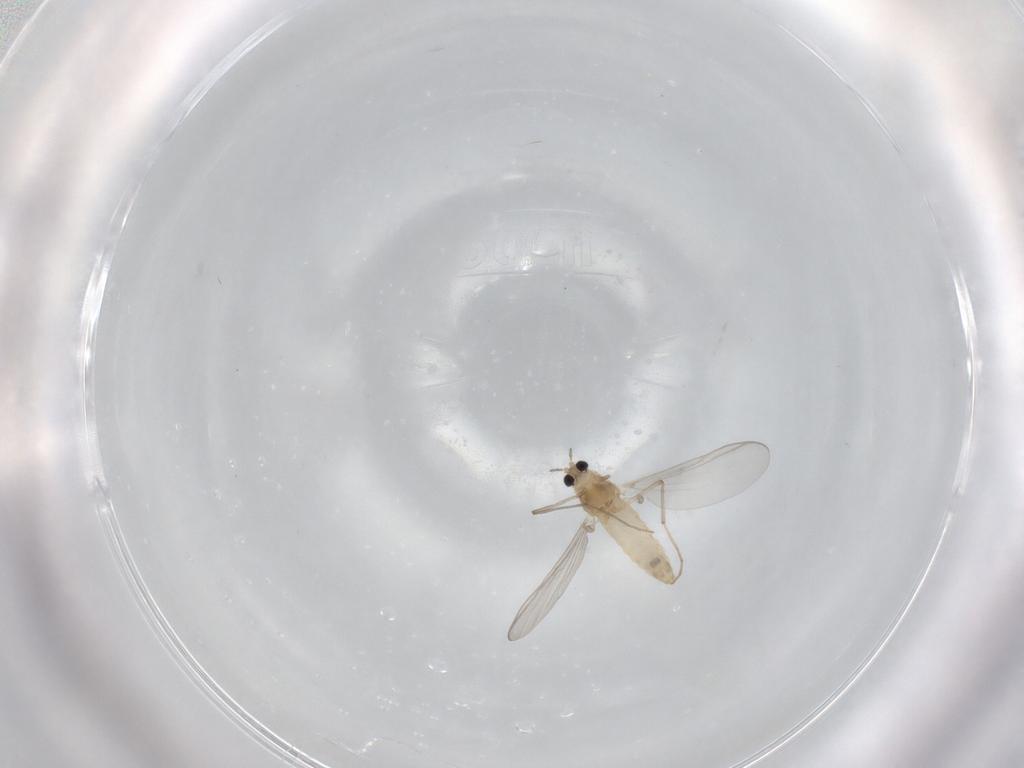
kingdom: Animalia
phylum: Arthropoda
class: Insecta
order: Diptera
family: Chironomidae
